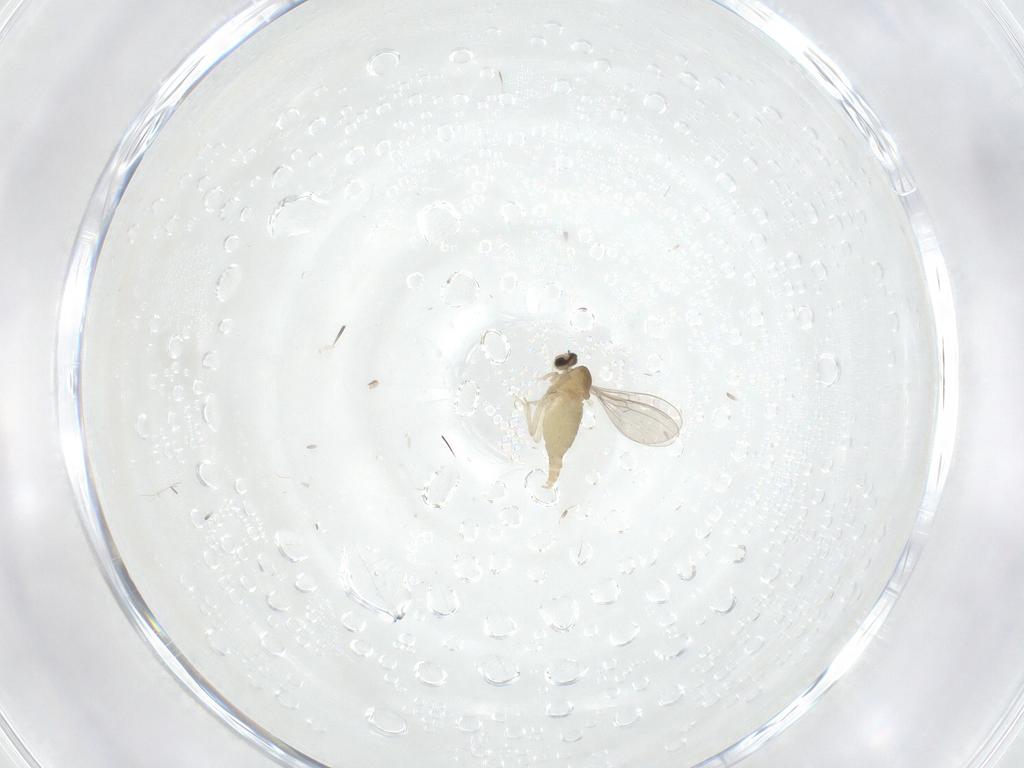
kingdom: Animalia
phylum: Arthropoda
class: Insecta
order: Diptera
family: Cecidomyiidae
